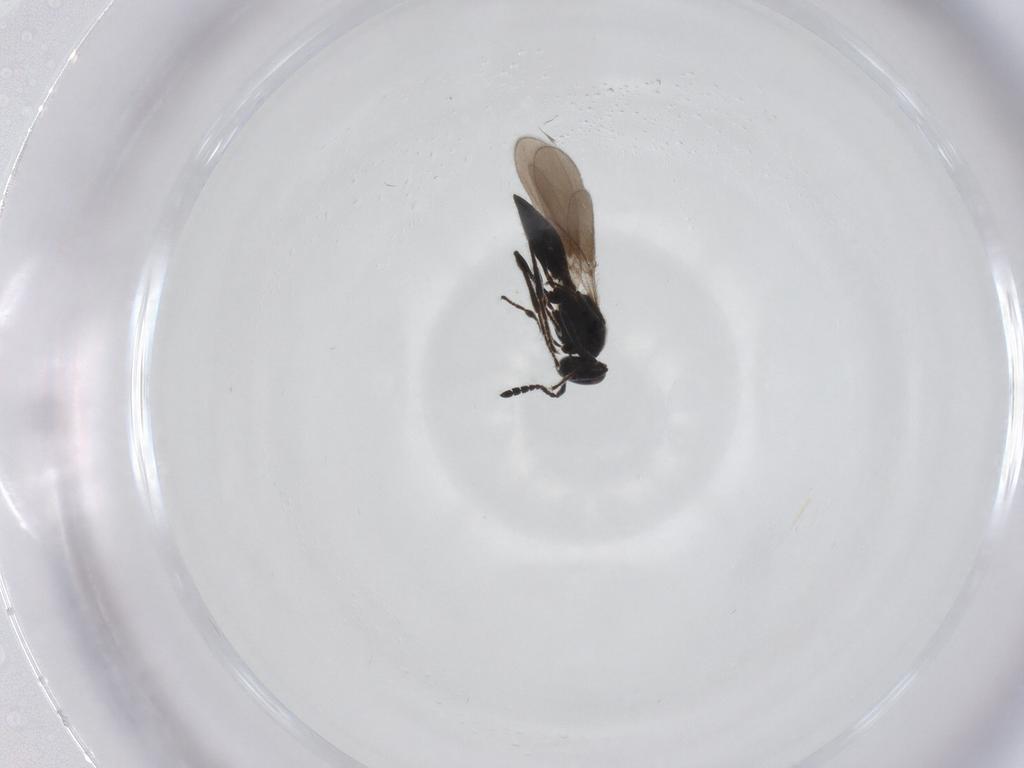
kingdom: Animalia
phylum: Arthropoda
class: Insecta
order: Hymenoptera
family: Platygastridae
